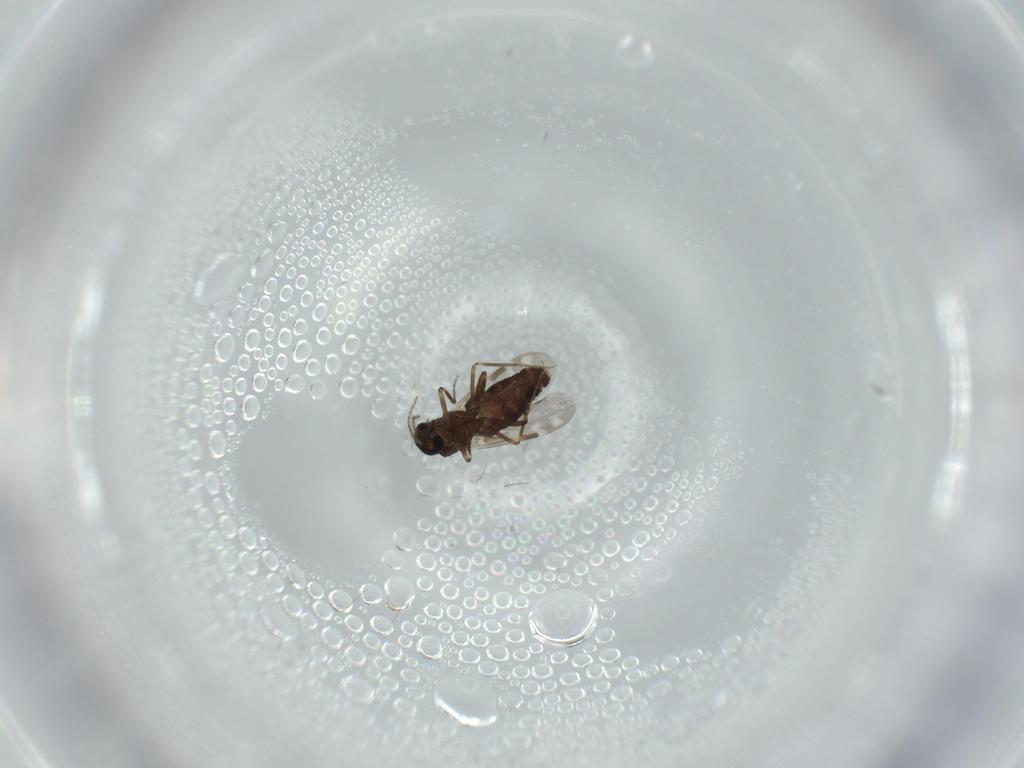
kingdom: Animalia
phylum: Arthropoda
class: Insecta
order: Diptera
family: Ceratopogonidae
